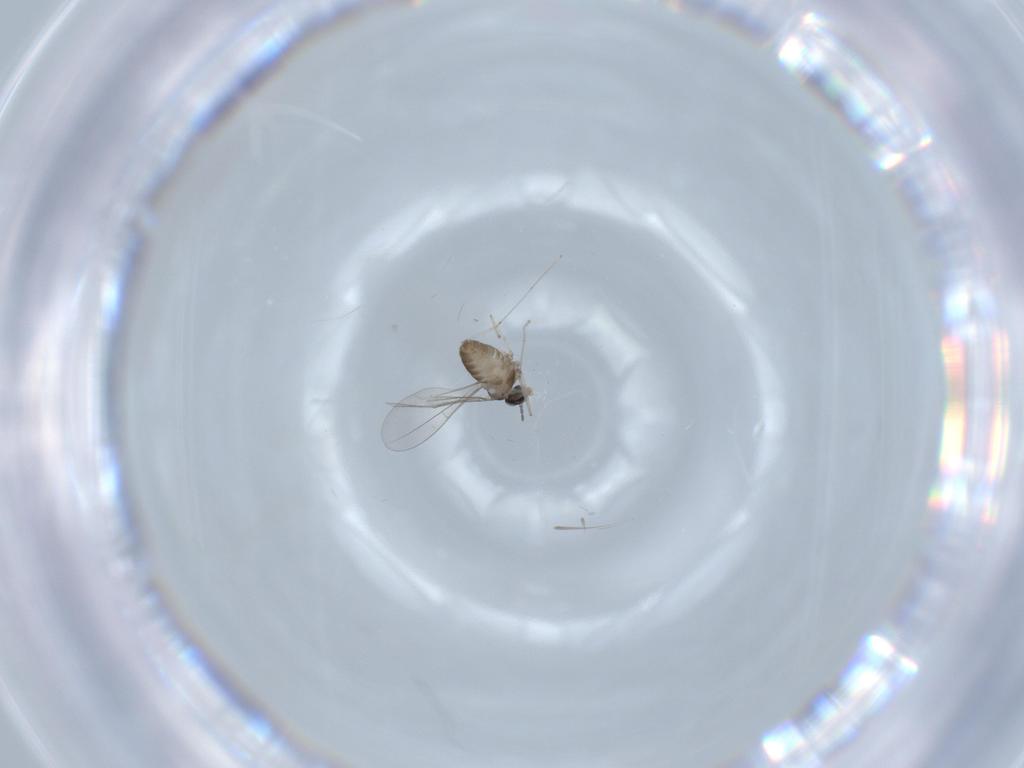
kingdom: Animalia
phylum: Arthropoda
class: Insecta
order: Diptera
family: Cecidomyiidae
